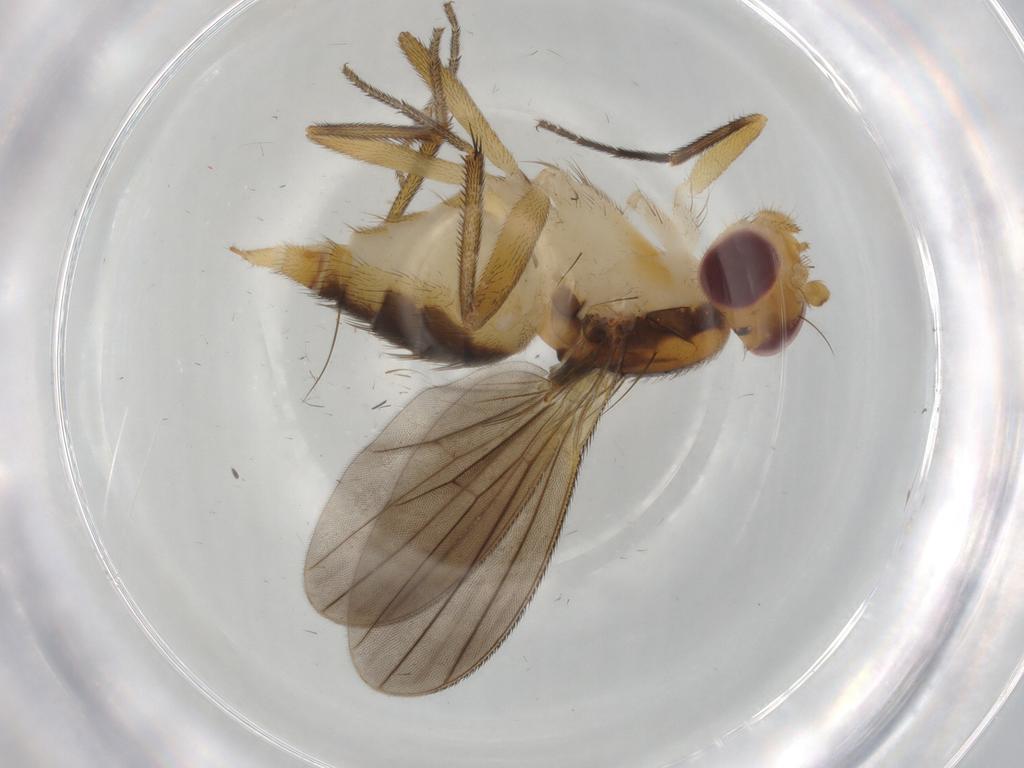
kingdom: Animalia
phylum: Arthropoda
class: Insecta
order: Diptera
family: Clusiidae
